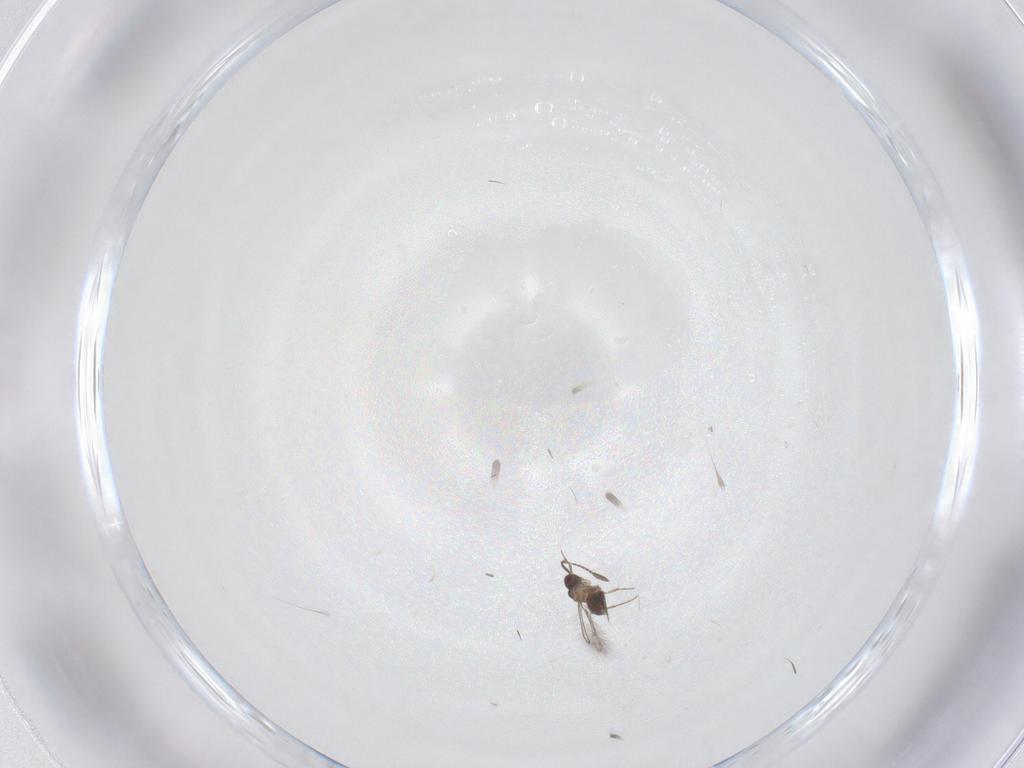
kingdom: Animalia
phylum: Arthropoda
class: Insecta
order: Hymenoptera
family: Mymaridae
